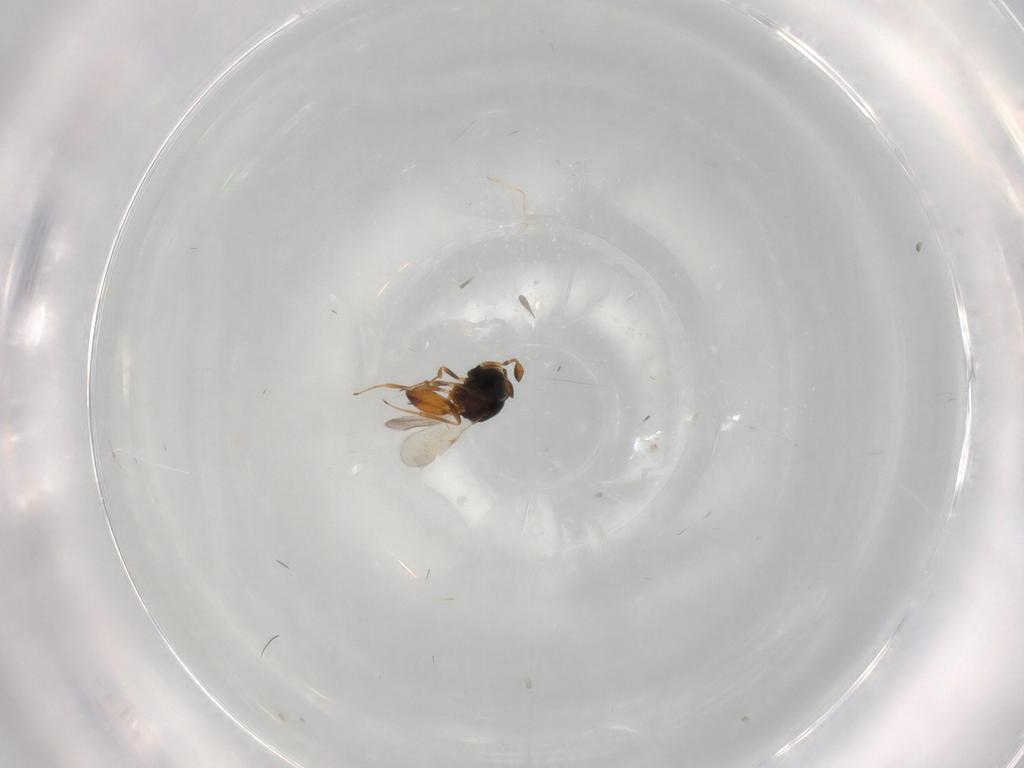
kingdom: Animalia
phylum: Arthropoda
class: Insecta
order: Hymenoptera
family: Scelionidae
